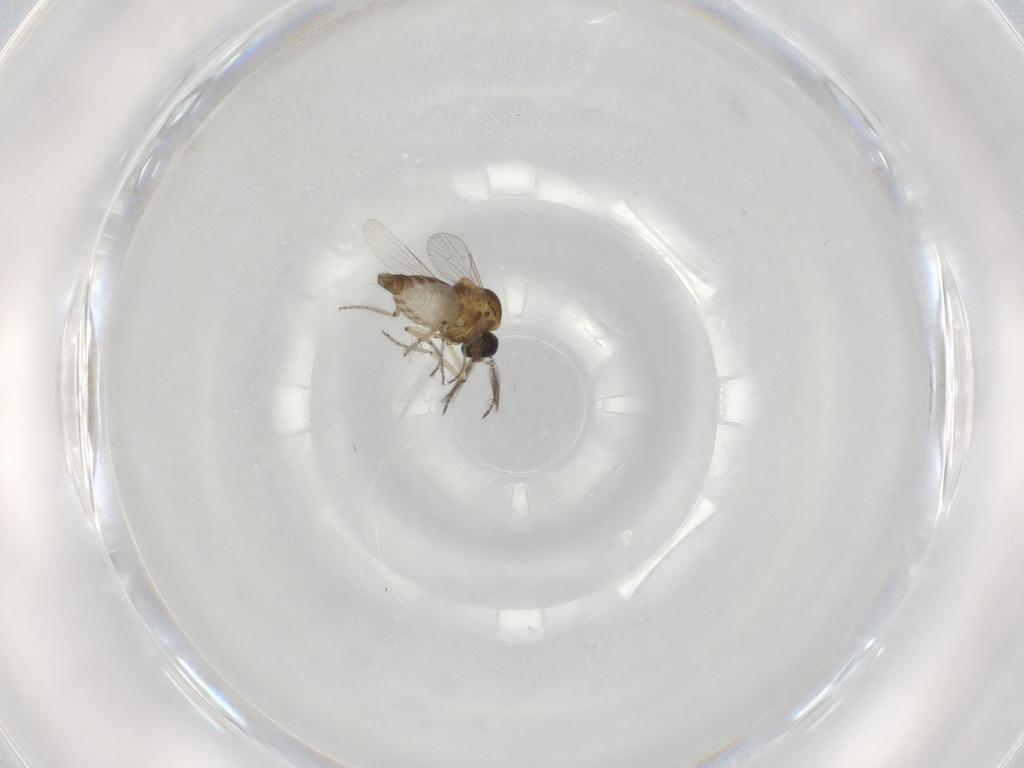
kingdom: Animalia
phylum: Arthropoda
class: Insecta
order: Diptera
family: Ceratopogonidae
